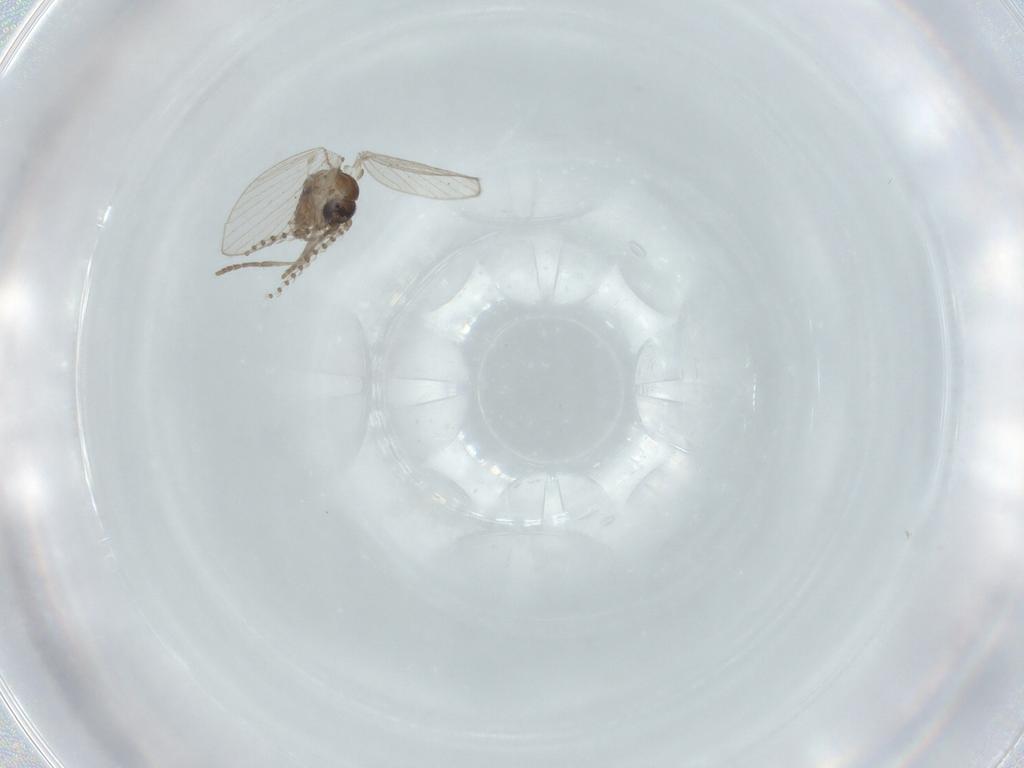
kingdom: Animalia
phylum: Arthropoda
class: Insecta
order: Diptera
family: Psychodidae
